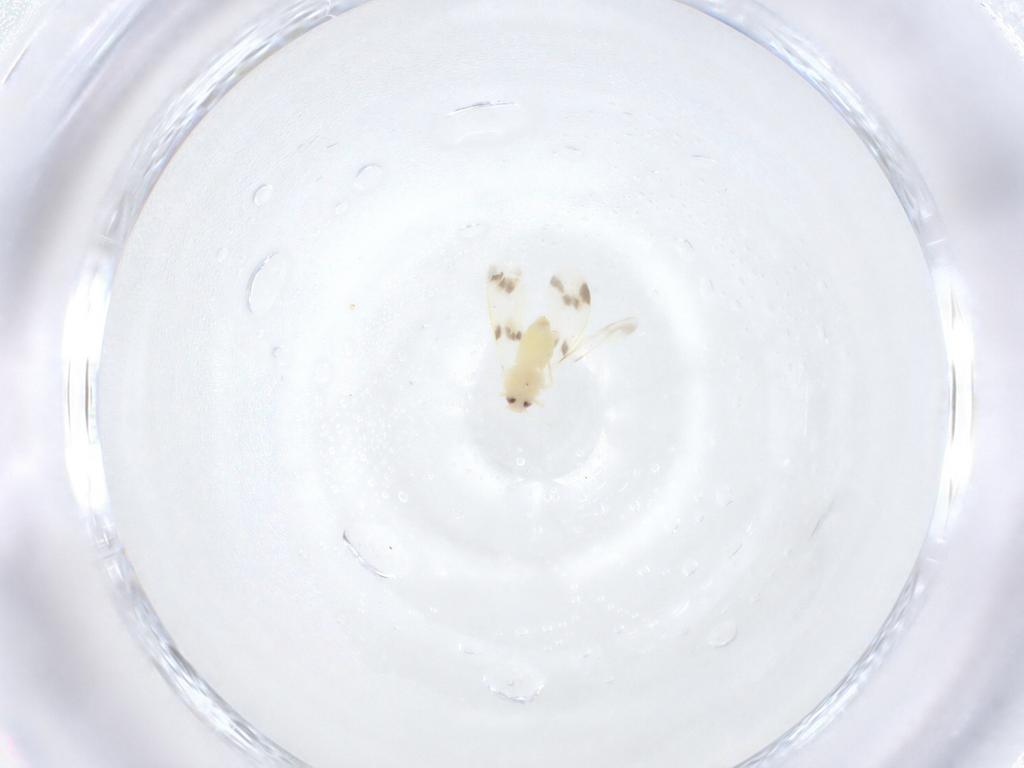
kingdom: Animalia
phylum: Arthropoda
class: Insecta
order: Hemiptera
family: Aleyrodidae
